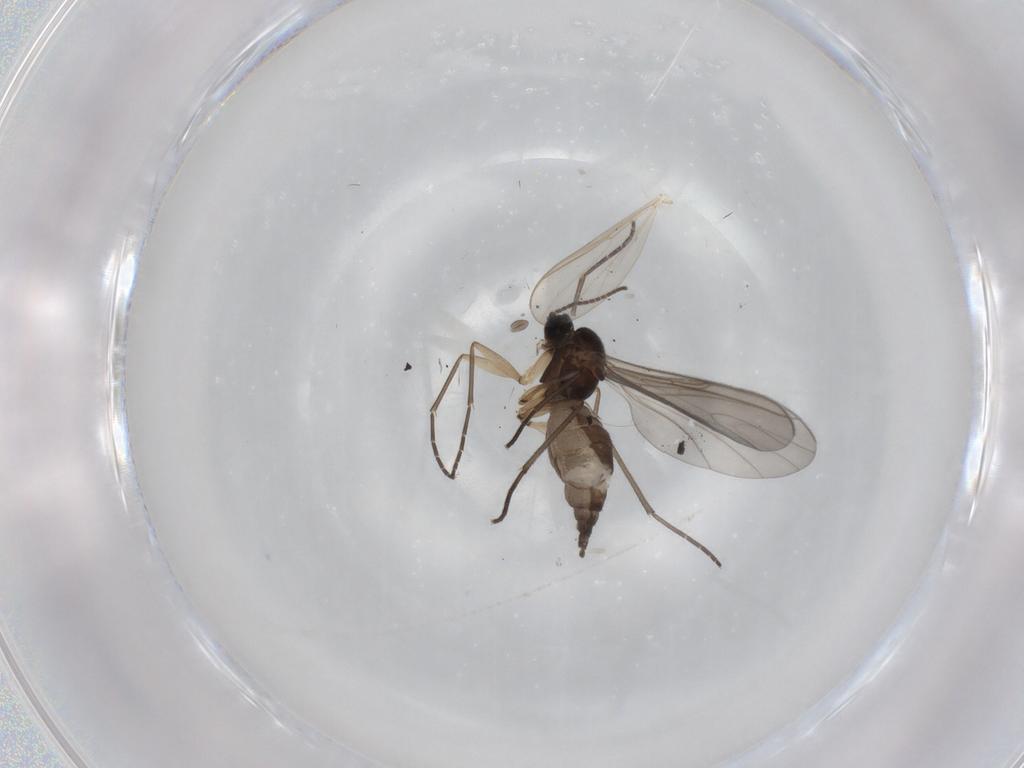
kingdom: Animalia
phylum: Arthropoda
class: Insecta
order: Diptera
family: Sciaridae
